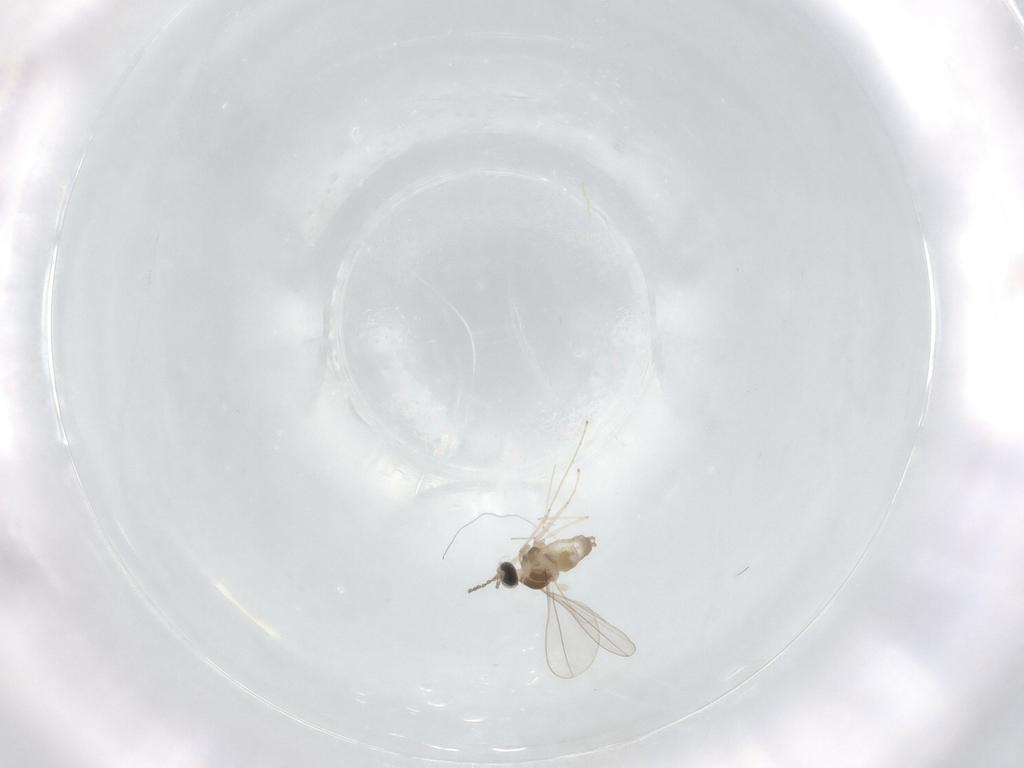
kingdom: Animalia
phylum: Arthropoda
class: Insecta
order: Diptera
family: Cecidomyiidae
